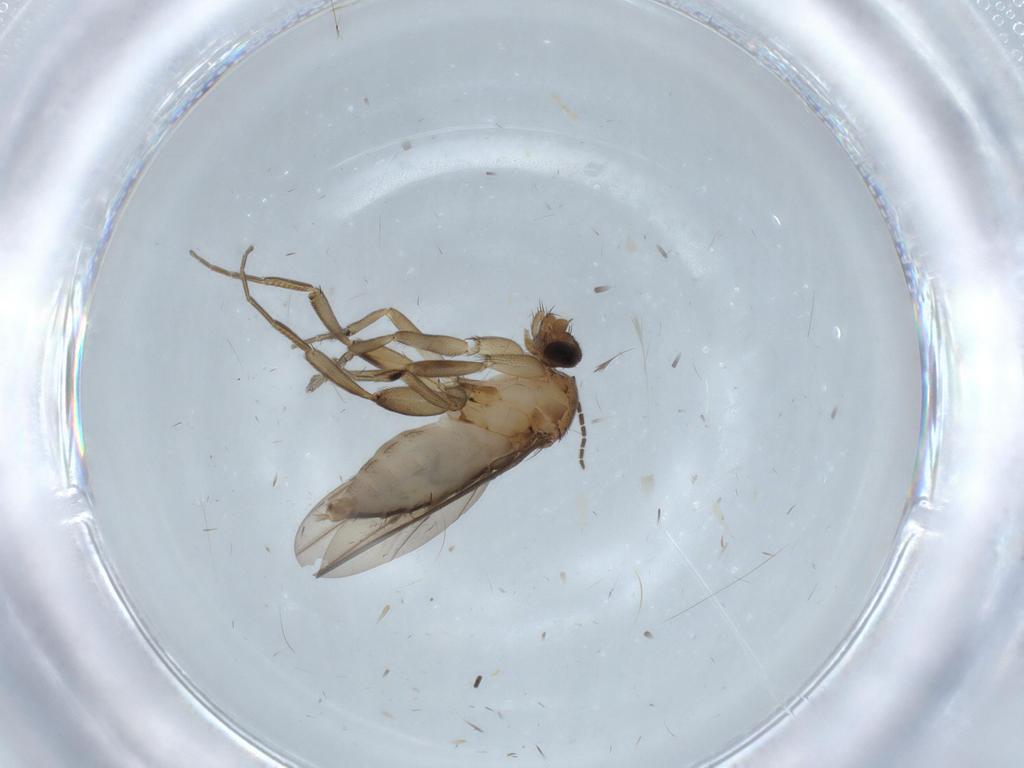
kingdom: Animalia
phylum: Arthropoda
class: Insecta
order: Diptera
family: Phoridae
